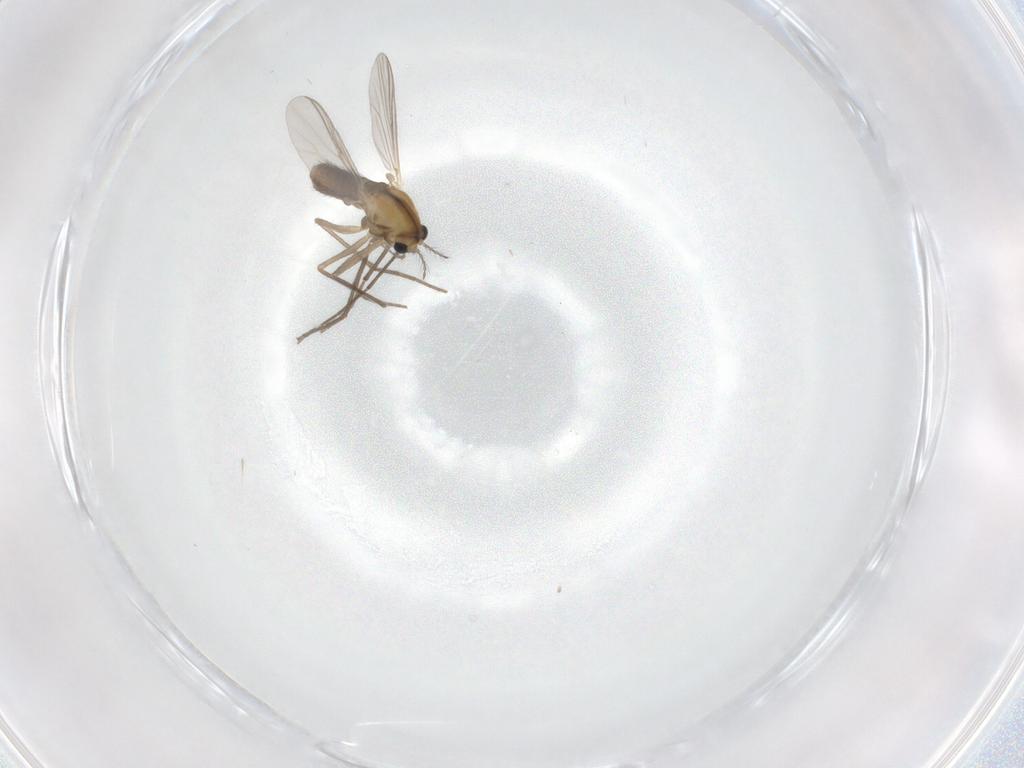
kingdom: Animalia
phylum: Arthropoda
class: Insecta
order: Diptera
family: Chironomidae
